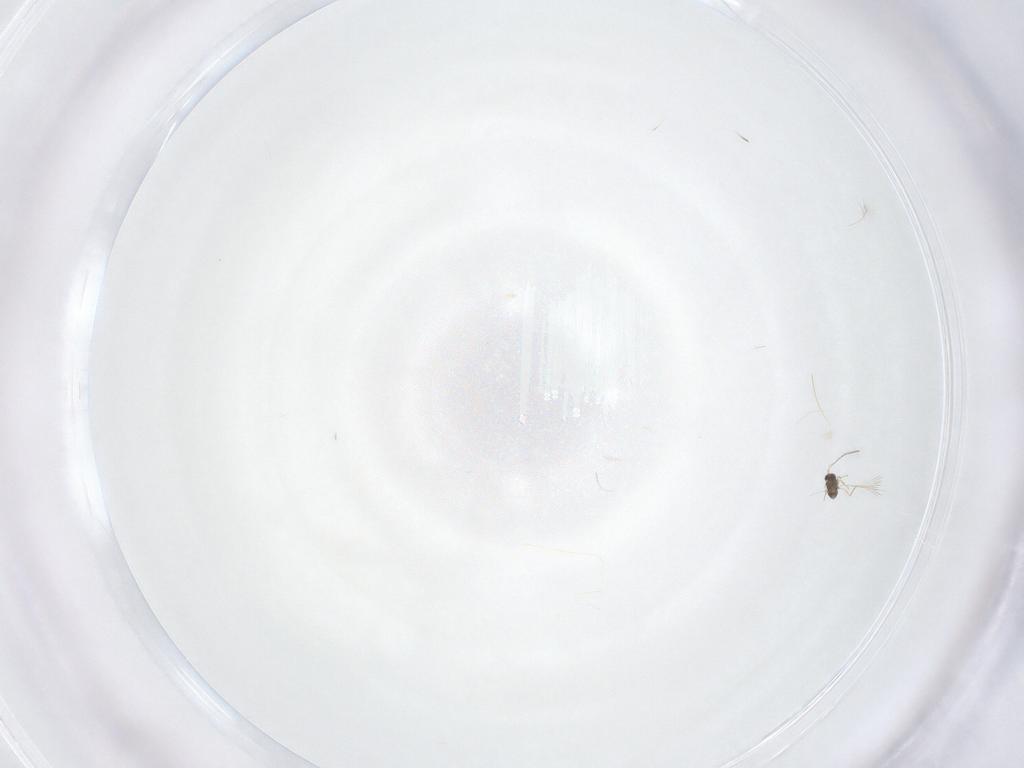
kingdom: Animalia
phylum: Arthropoda
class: Insecta
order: Hymenoptera
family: Mymaridae
